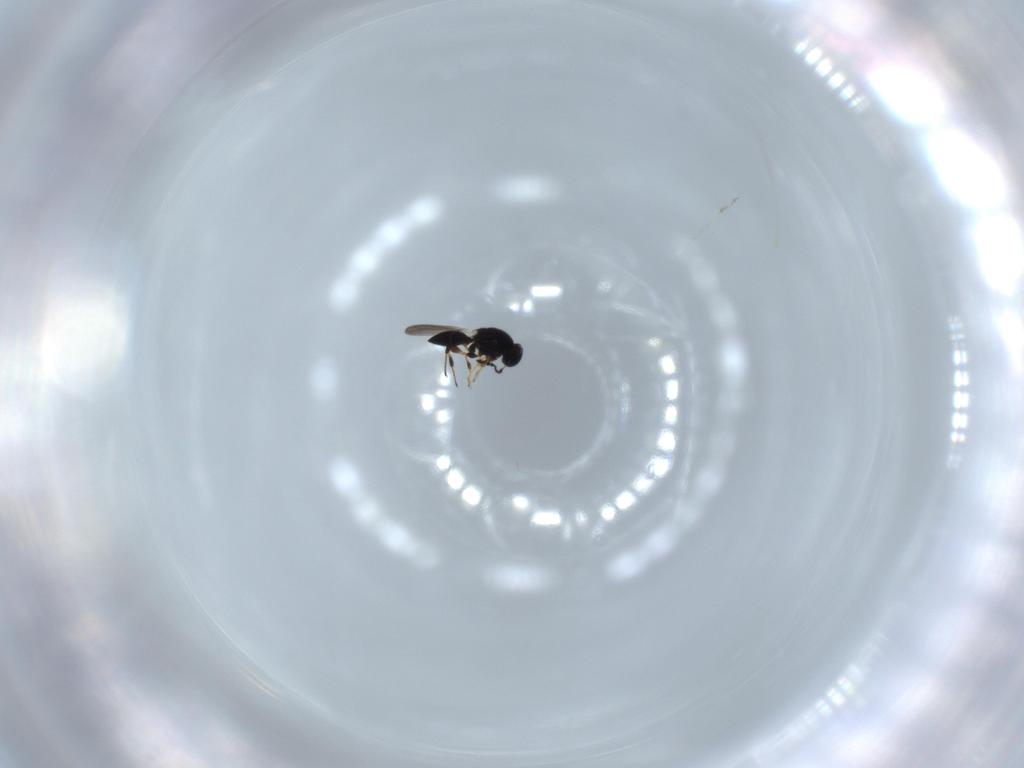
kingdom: Animalia
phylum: Arthropoda
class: Insecta
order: Hymenoptera
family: Platygastridae
